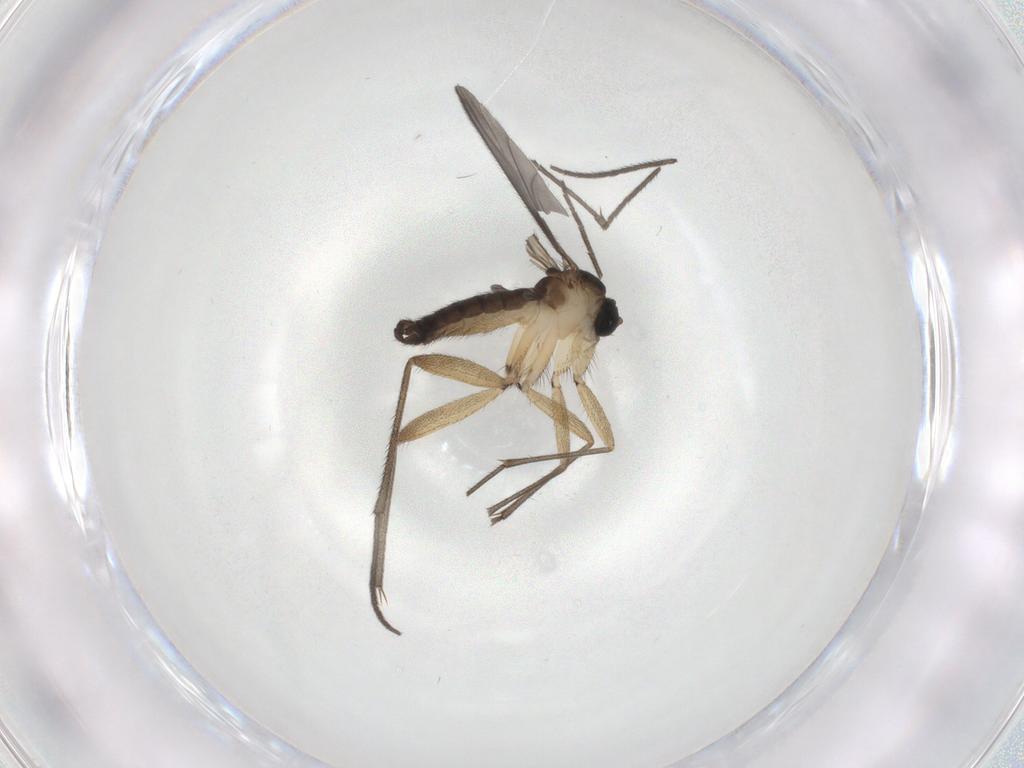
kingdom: Animalia
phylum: Arthropoda
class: Insecta
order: Diptera
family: Sciaridae
